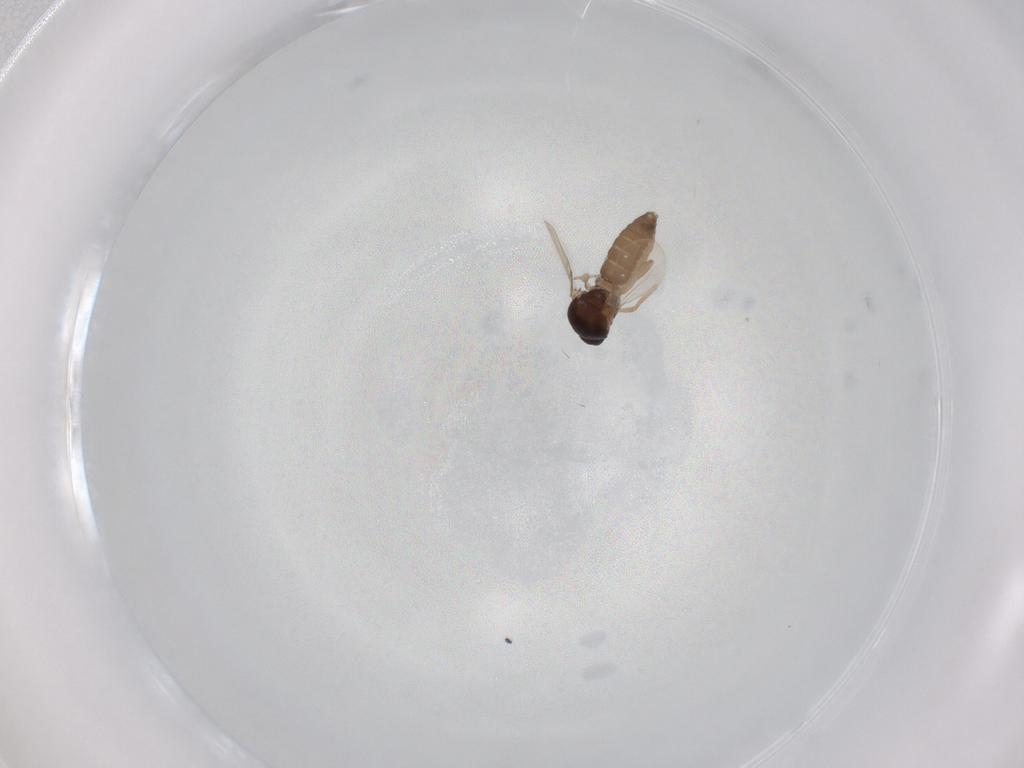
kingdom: Animalia
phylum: Arthropoda
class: Insecta
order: Diptera
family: Ceratopogonidae
